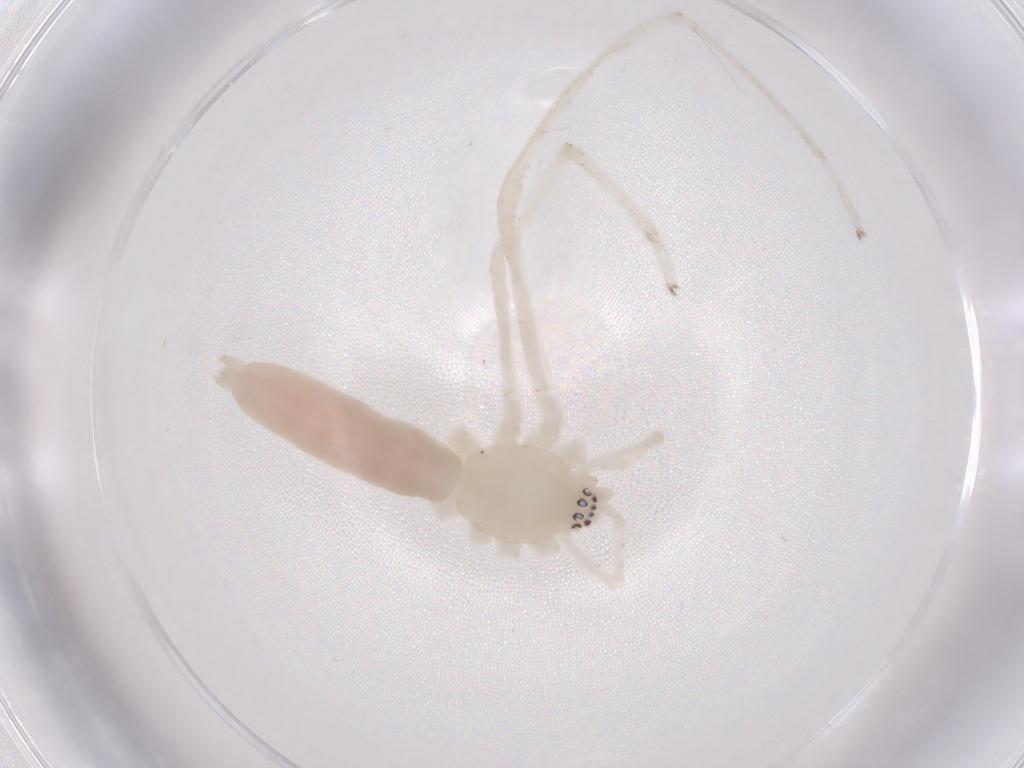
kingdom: Animalia
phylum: Arthropoda
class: Arachnida
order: Araneae
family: Anyphaenidae
